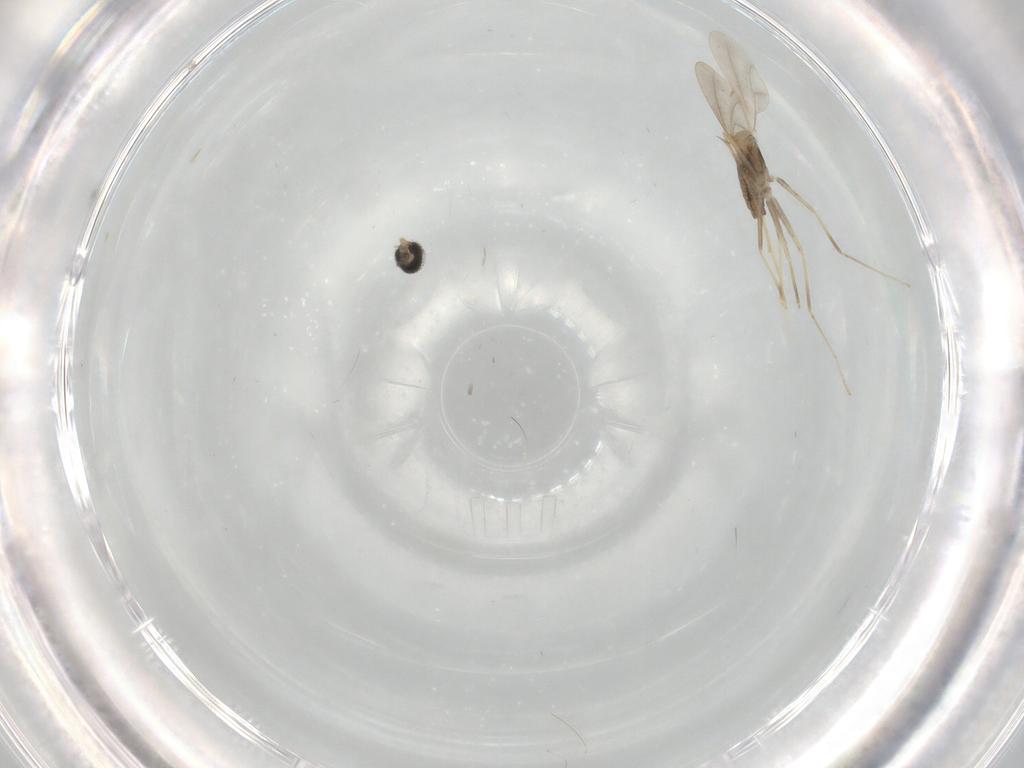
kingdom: Animalia
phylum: Arthropoda
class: Insecta
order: Diptera
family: Cecidomyiidae
